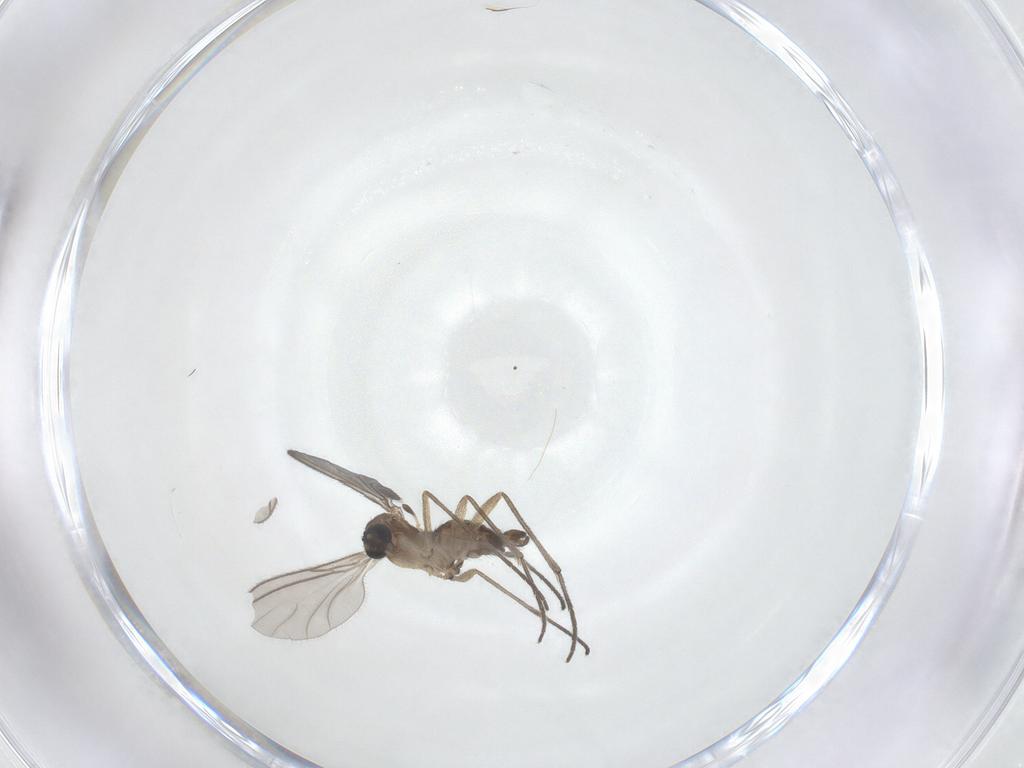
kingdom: Animalia
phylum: Arthropoda
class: Insecta
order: Diptera
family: Sciaridae
